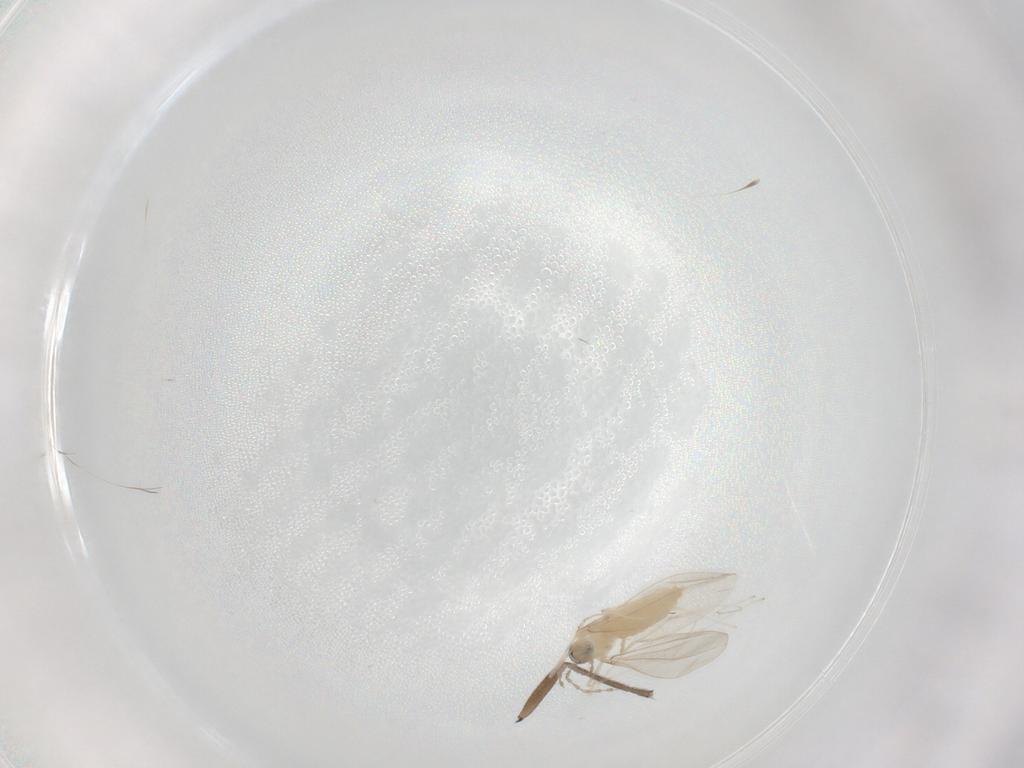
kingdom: Animalia
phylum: Arthropoda
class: Insecta
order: Diptera
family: Cecidomyiidae
